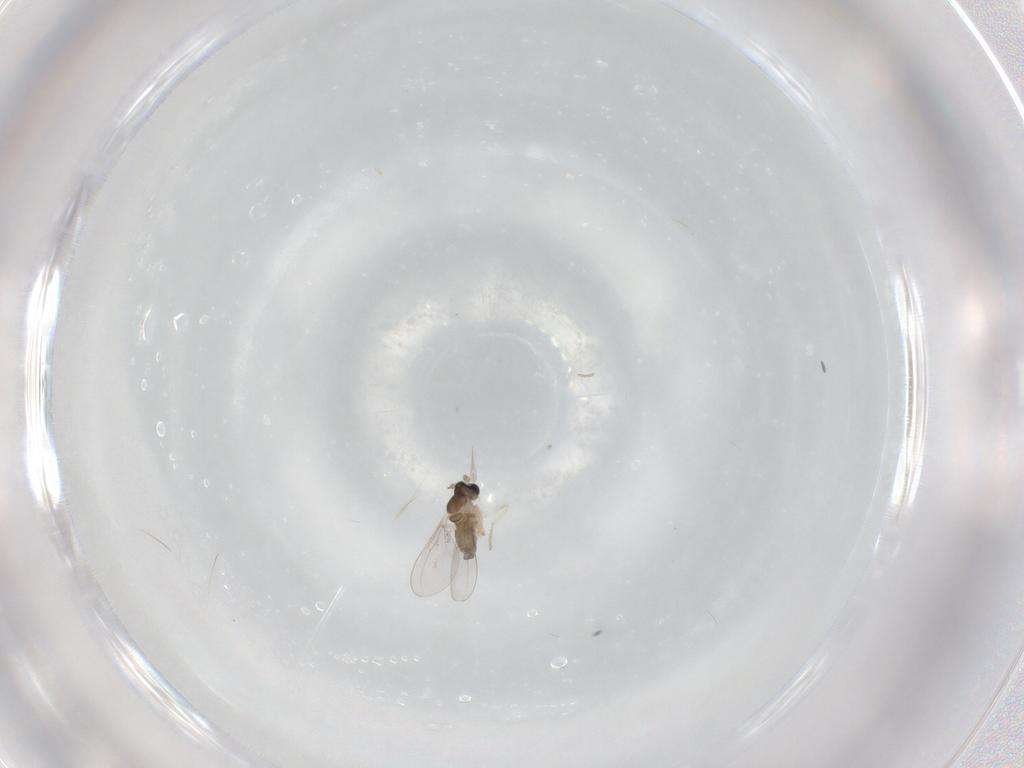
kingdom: Animalia
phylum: Arthropoda
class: Insecta
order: Diptera
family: Cecidomyiidae
